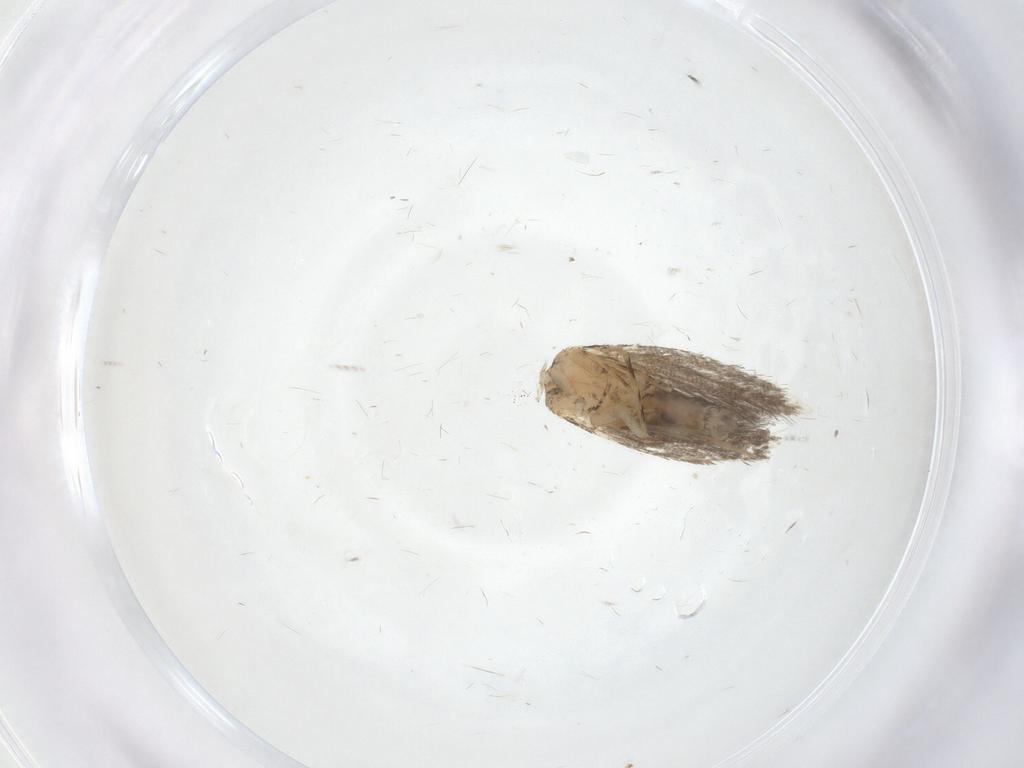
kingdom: Animalia
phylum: Arthropoda
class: Insecta
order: Lepidoptera
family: Meessiidae
